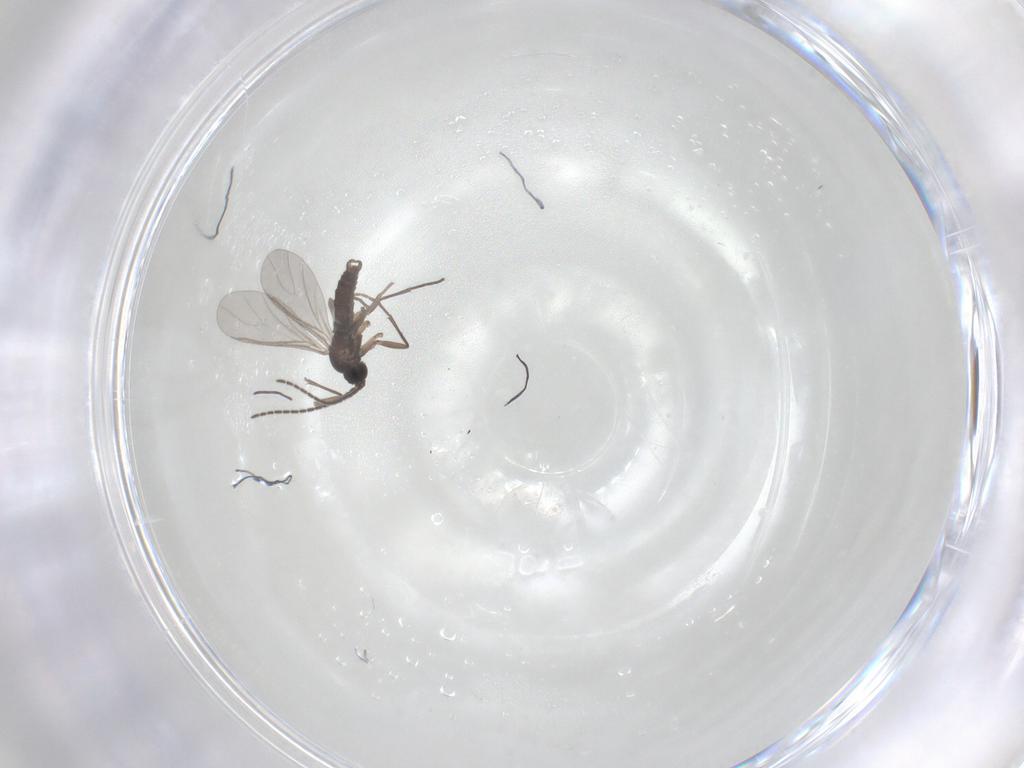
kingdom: Animalia
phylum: Arthropoda
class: Insecta
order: Diptera
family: Sciaridae
